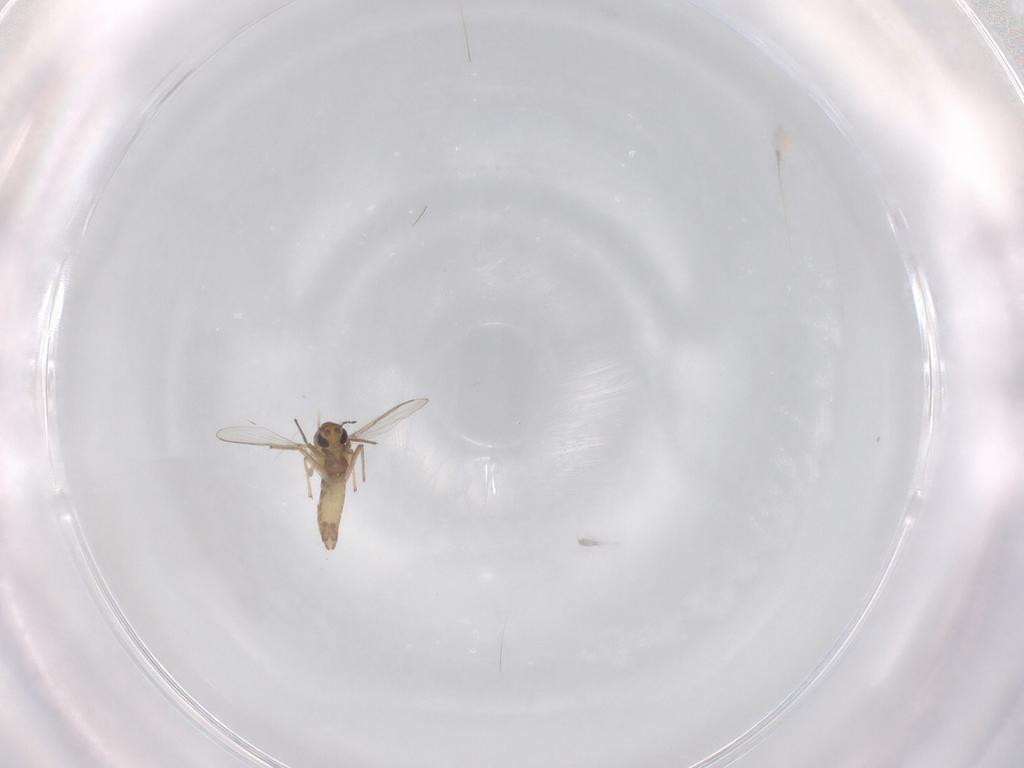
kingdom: Animalia
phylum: Arthropoda
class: Insecta
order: Diptera
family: Chironomidae
